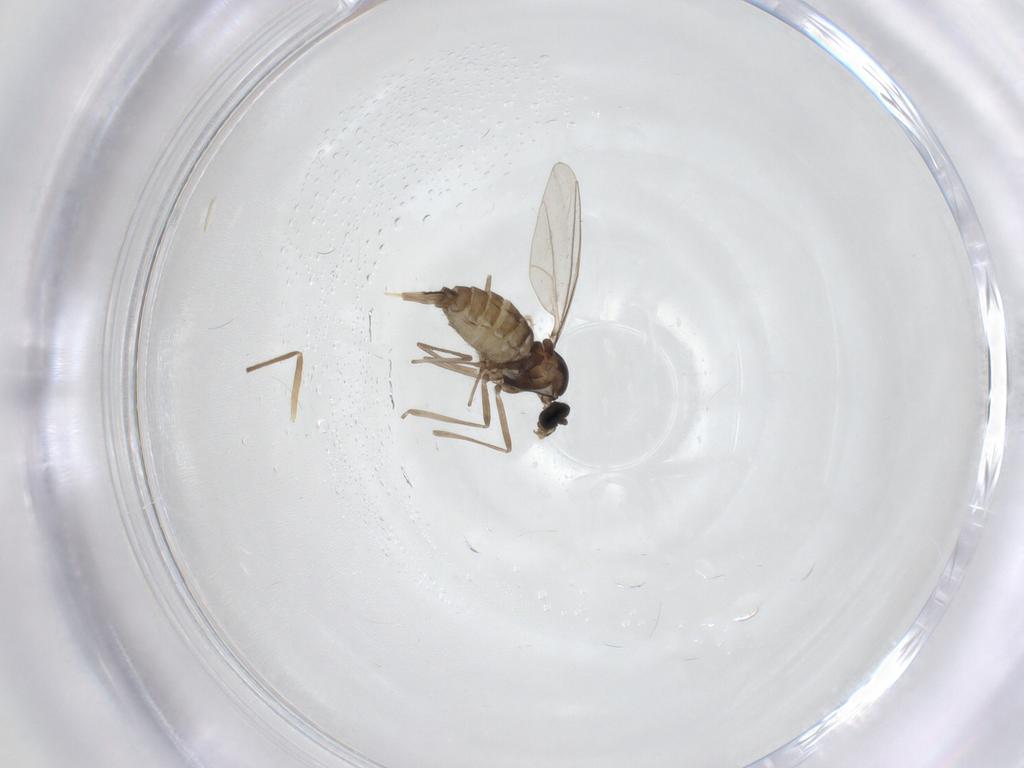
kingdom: Animalia
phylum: Arthropoda
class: Insecta
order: Diptera
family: Chironomidae
